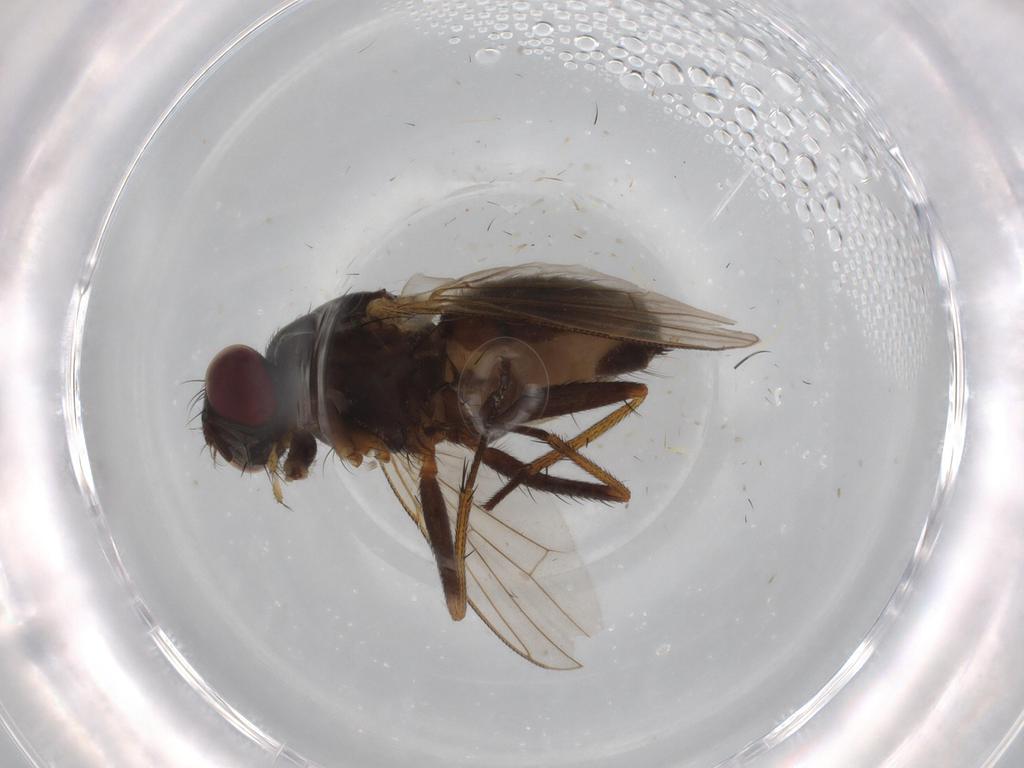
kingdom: Animalia
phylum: Arthropoda
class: Insecta
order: Diptera
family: Dolichopodidae
